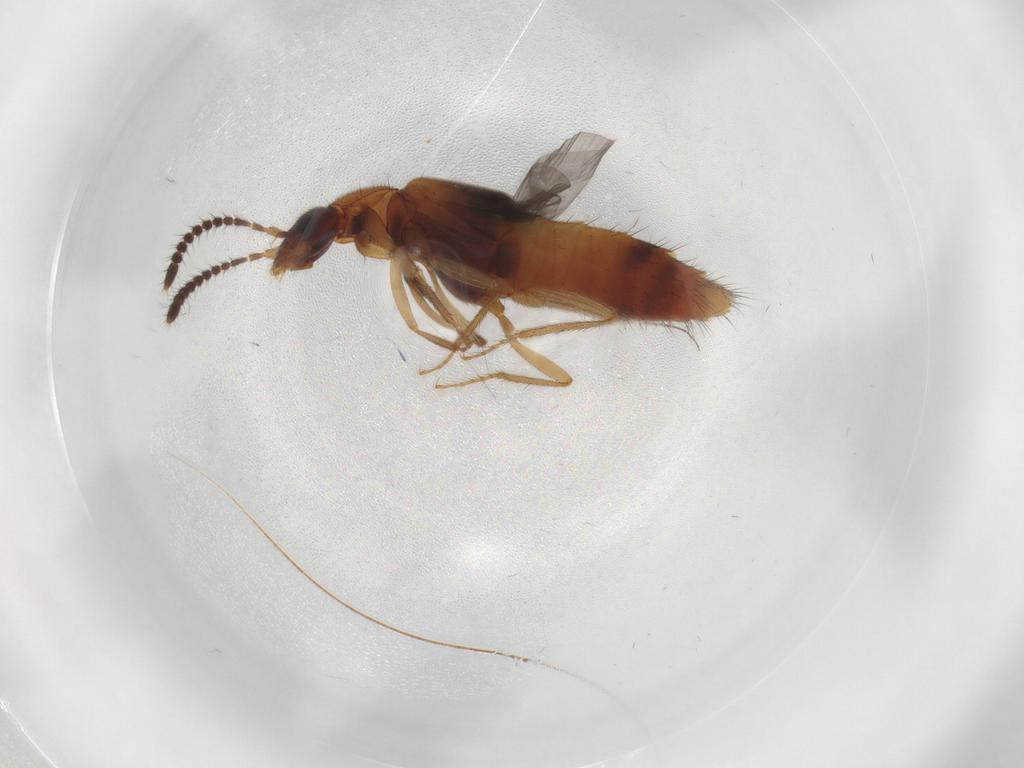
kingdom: Animalia
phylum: Arthropoda
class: Insecta
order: Coleoptera
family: Staphylinidae
